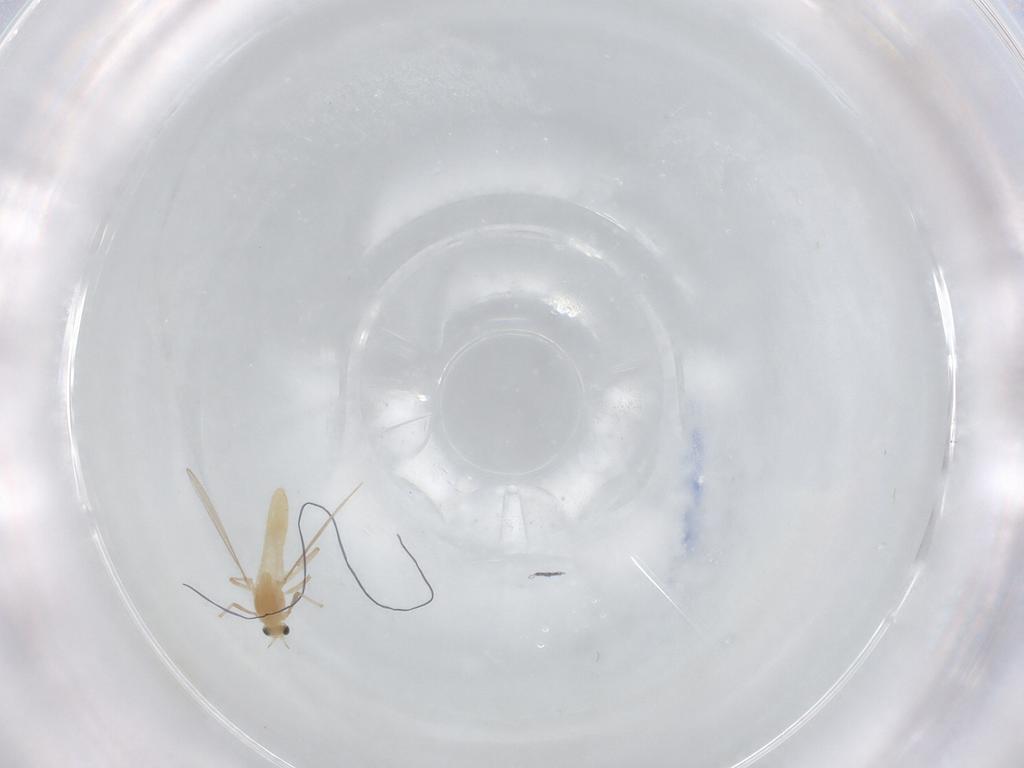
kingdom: Animalia
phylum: Arthropoda
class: Insecta
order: Diptera
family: Chironomidae
